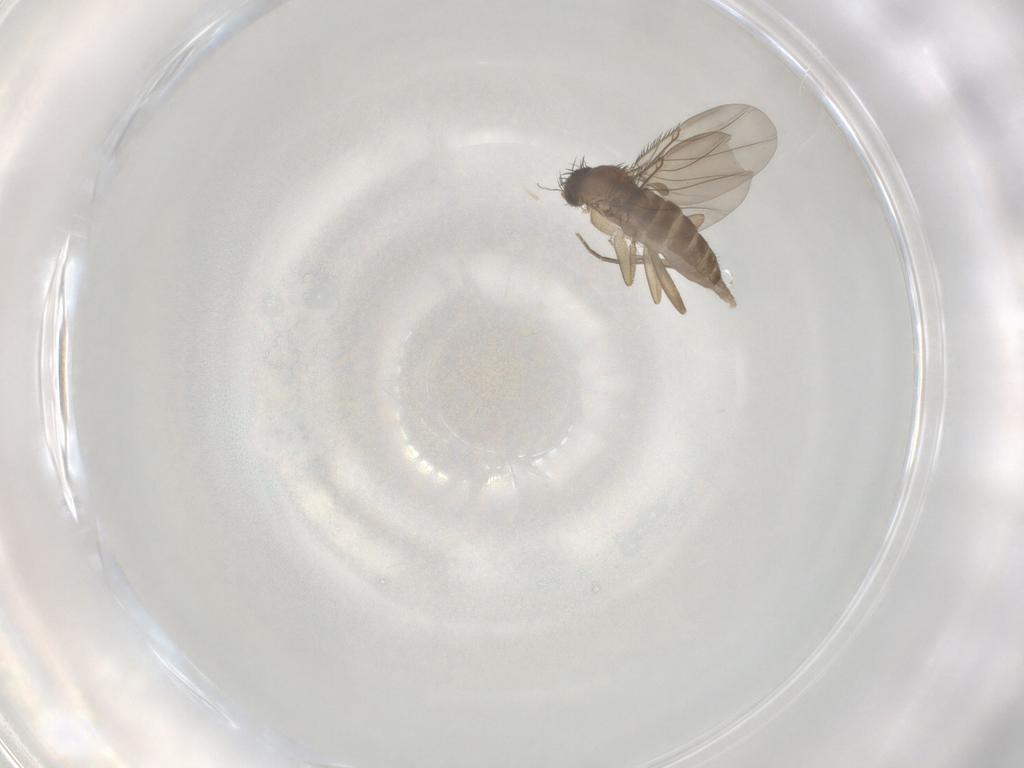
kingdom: Animalia
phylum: Arthropoda
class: Insecta
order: Diptera
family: Phoridae
